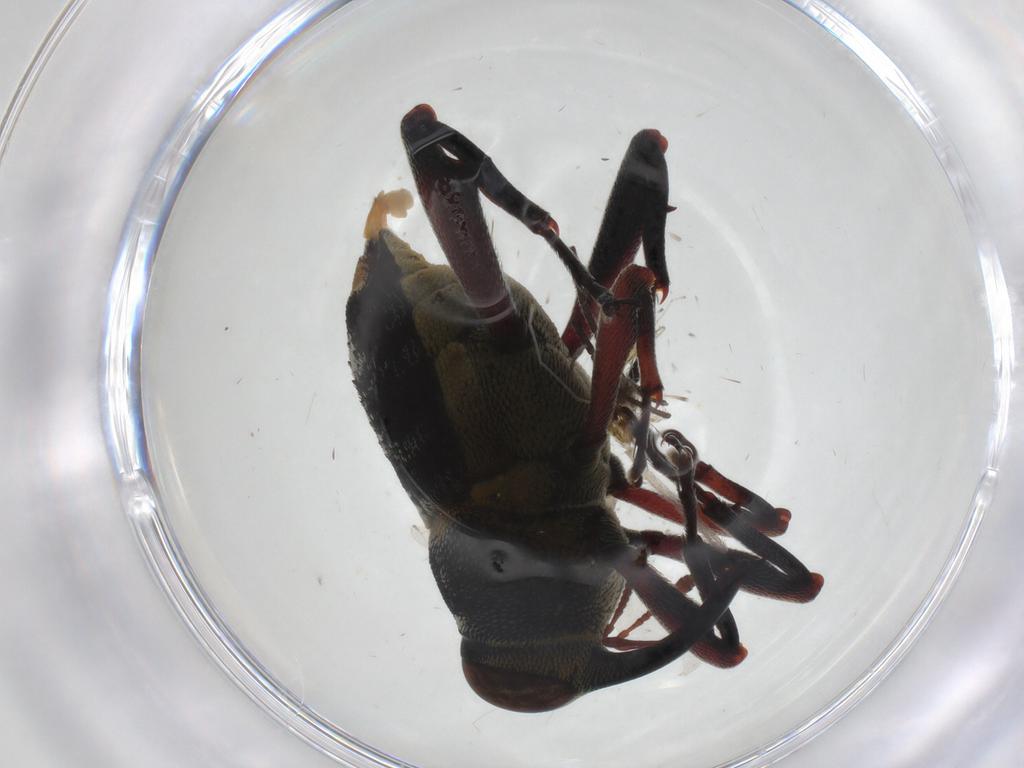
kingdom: Animalia
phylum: Arthropoda
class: Insecta
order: Coleoptera
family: Curculionidae
